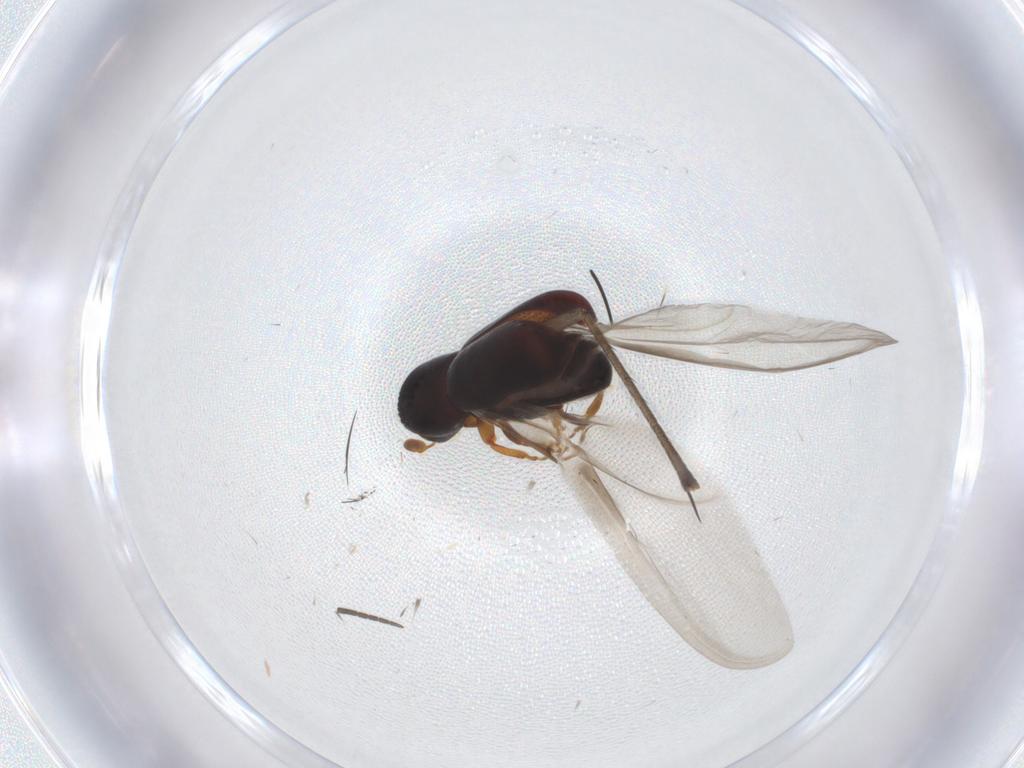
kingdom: Animalia
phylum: Arthropoda
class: Insecta
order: Coleoptera
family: Curculionidae
